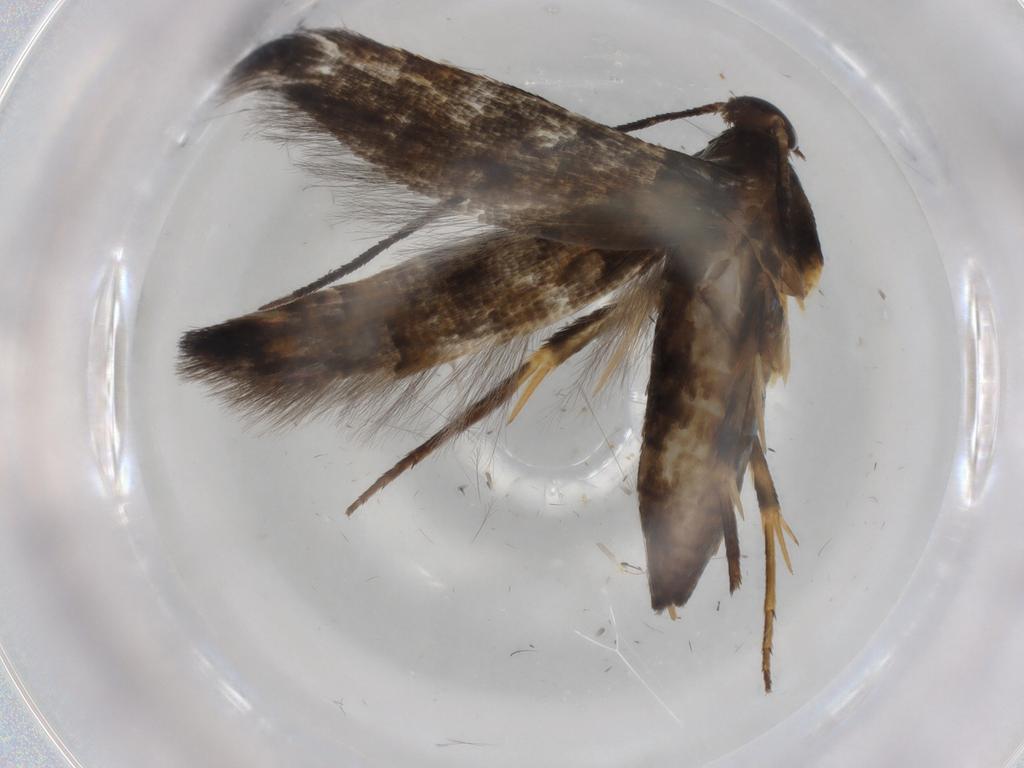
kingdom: Animalia
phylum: Arthropoda
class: Insecta
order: Lepidoptera
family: Heliodinidae
